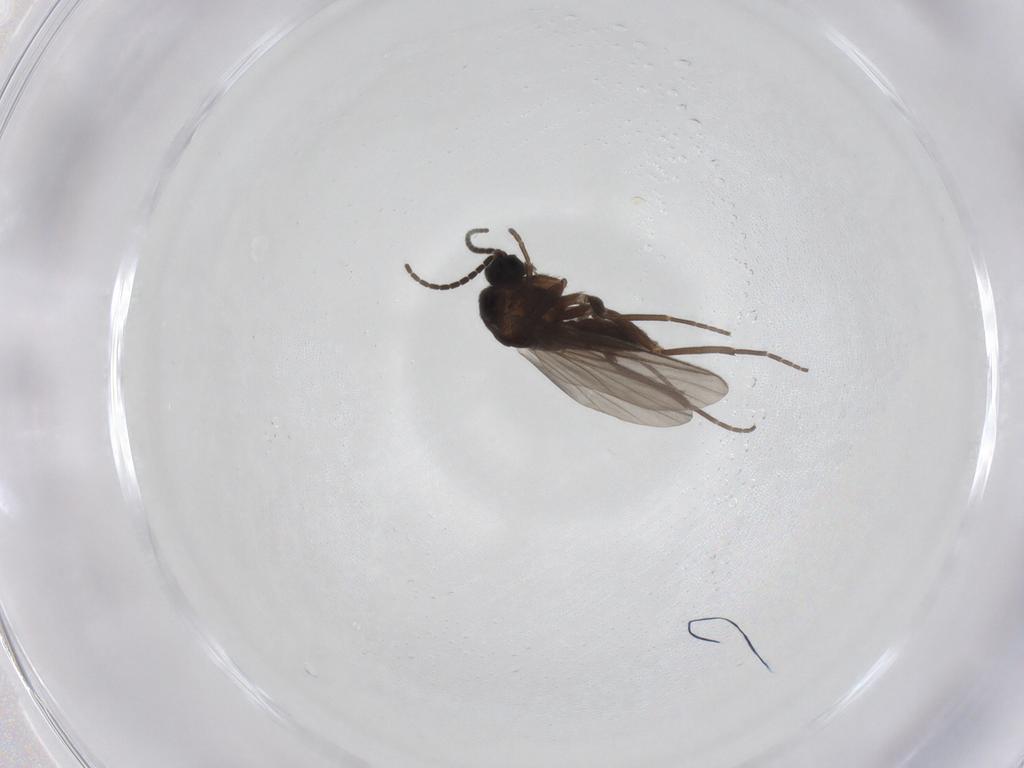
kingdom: Animalia
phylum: Arthropoda
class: Insecta
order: Diptera
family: Sciaridae
